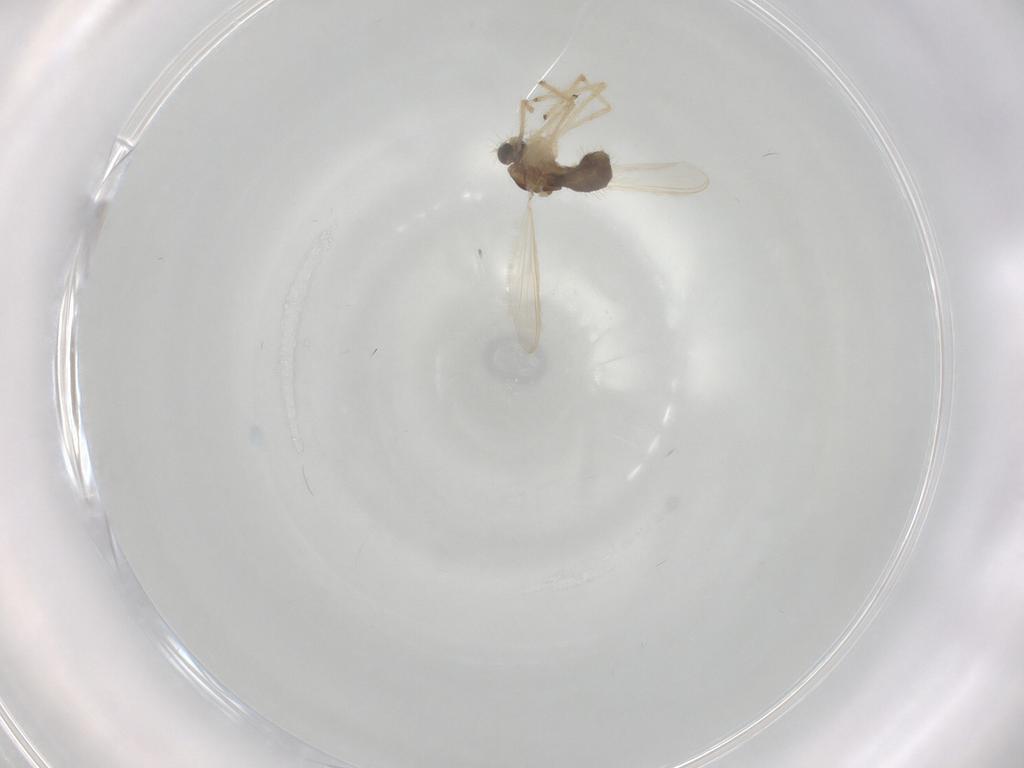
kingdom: Animalia
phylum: Arthropoda
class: Insecta
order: Diptera
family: Chironomidae
